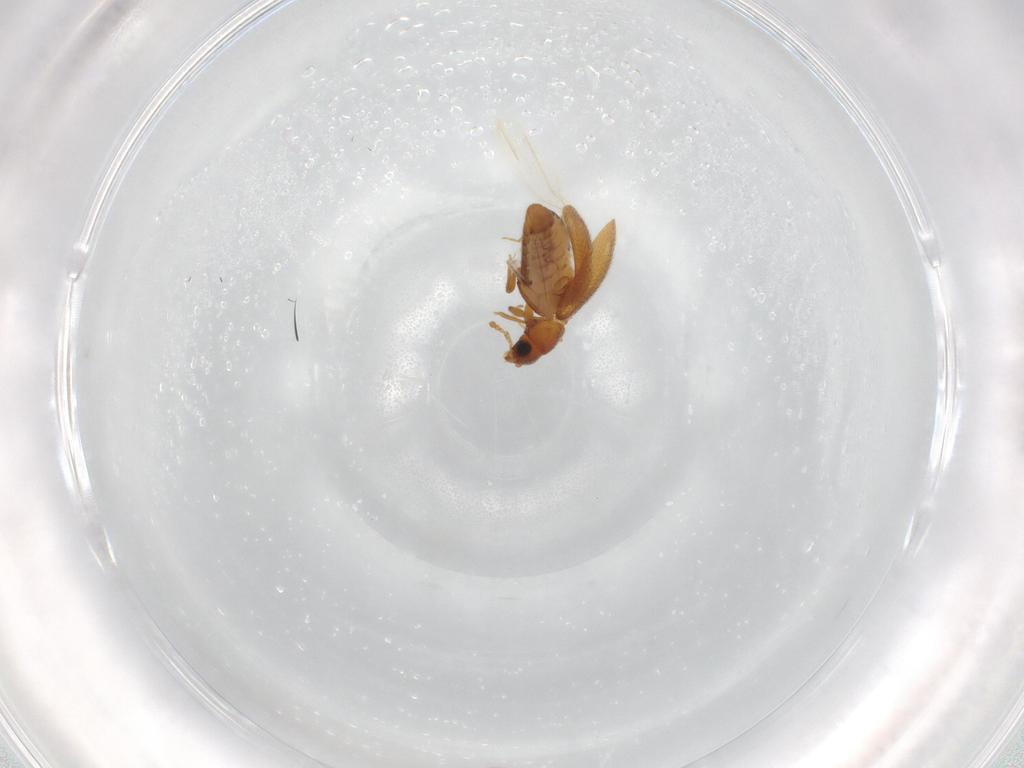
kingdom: Animalia
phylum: Arthropoda
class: Insecta
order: Coleoptera
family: Latridiidae
